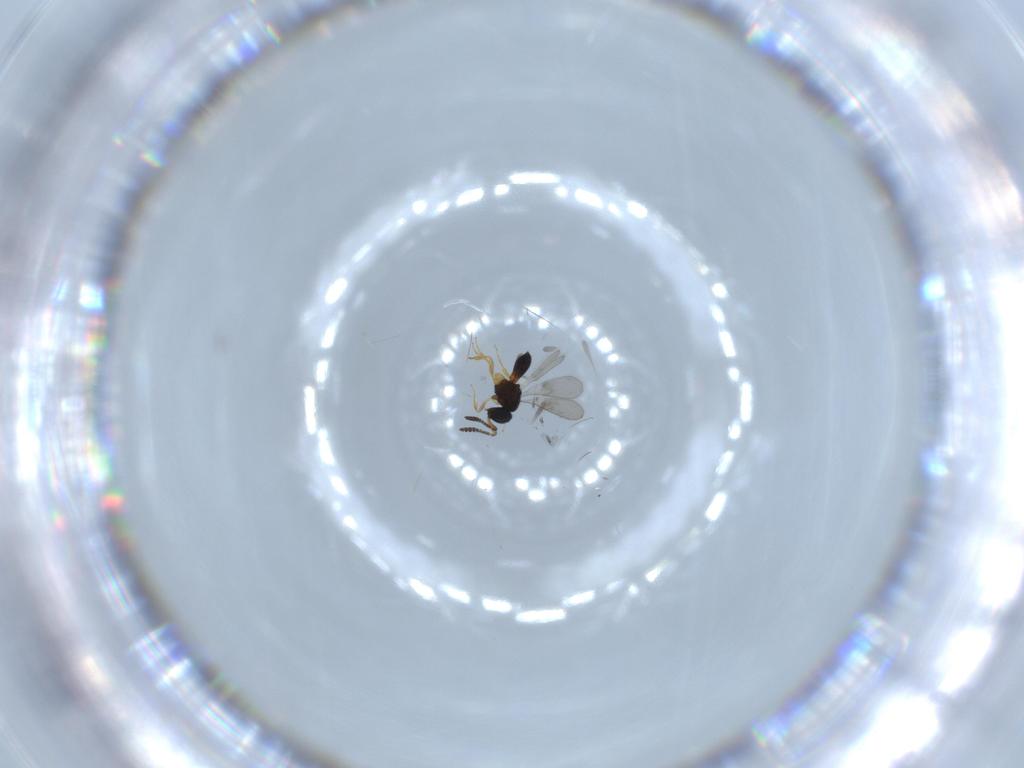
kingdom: Animalia
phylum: Arthropoda
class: Insecta
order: Hymenoptera
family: Scelionidae
